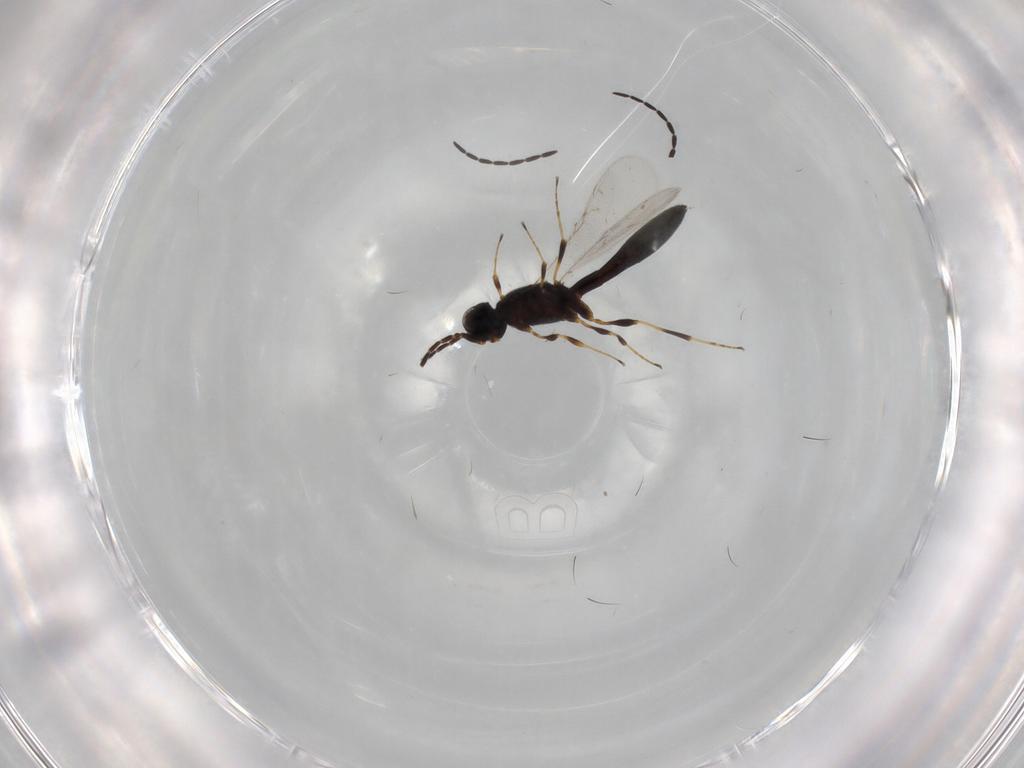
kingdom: Animalia
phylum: Arthropoda
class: Insecta
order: Hymenoptera
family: Scelionidae
